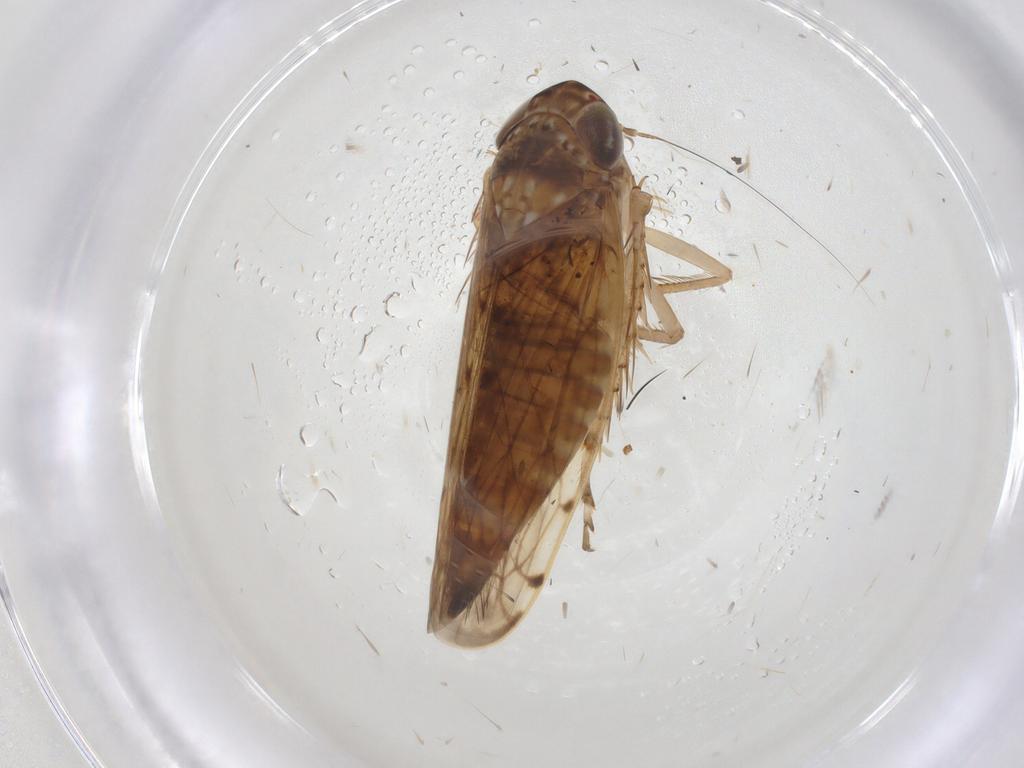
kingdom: Animalia
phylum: Arthropoda
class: Insecta
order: Hemiptera
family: Cicadellidae
